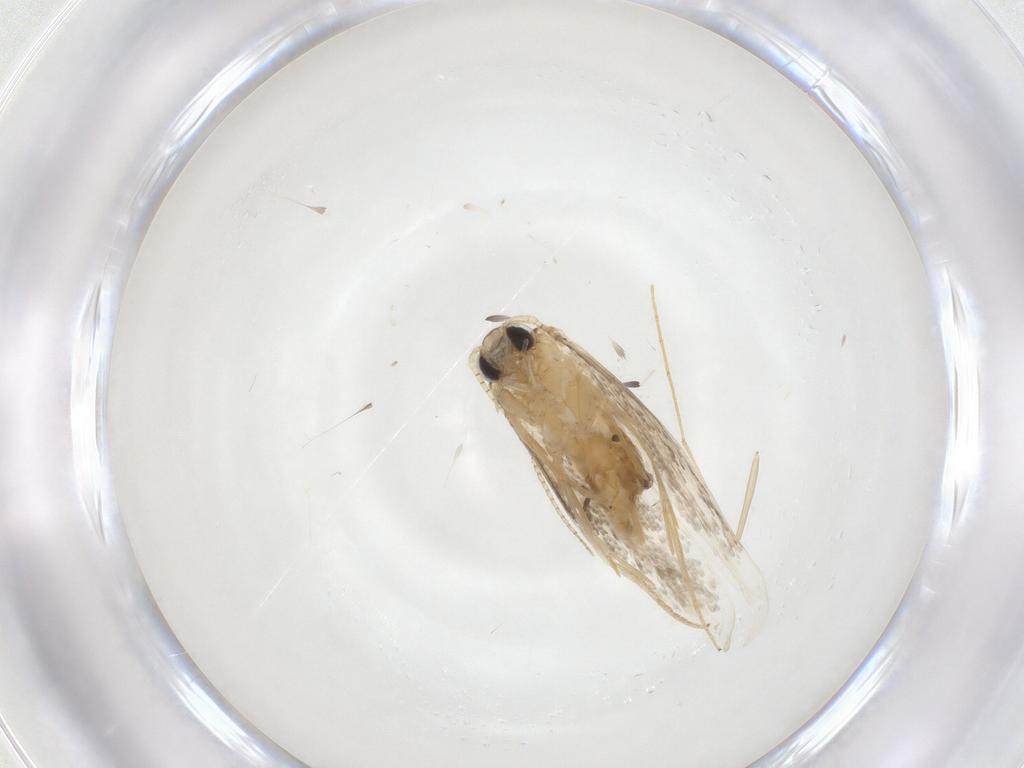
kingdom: Animalia
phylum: Arthropoda
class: Insecta
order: Lepidoptera
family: Nepticulidae
